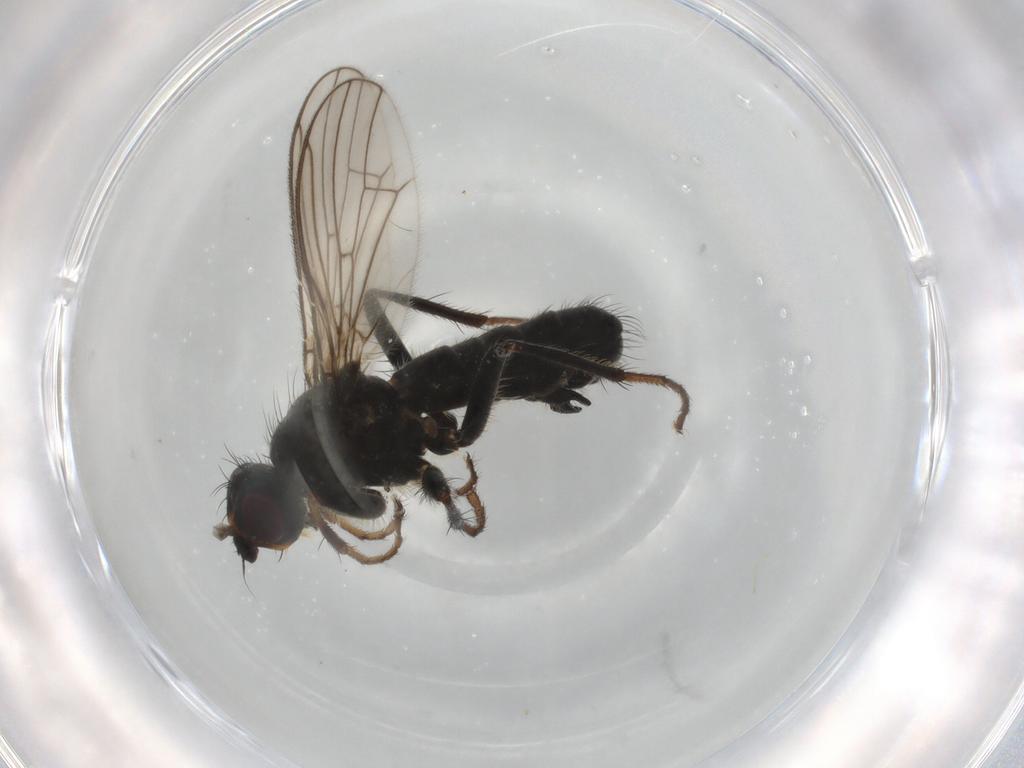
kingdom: Animalia
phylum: Arthropoda
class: Insecta
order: Diptera
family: Scathophagidae
